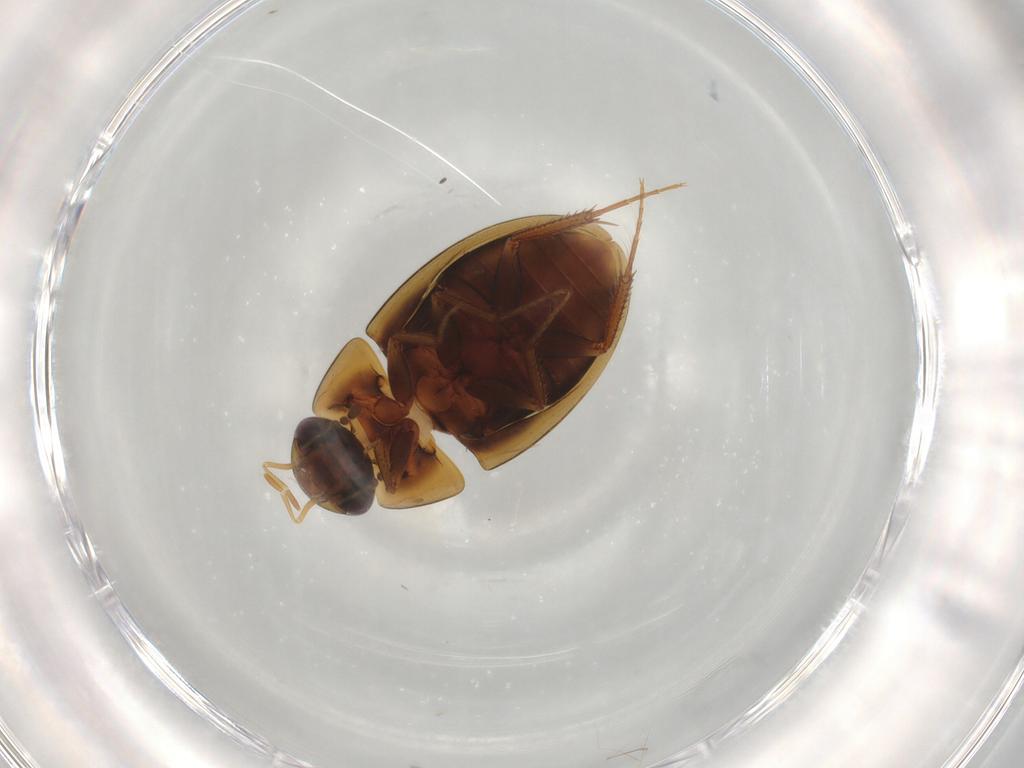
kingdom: Animalia
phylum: Arthropoda
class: Insecta
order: Coleoptera
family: Hydrophilidae
